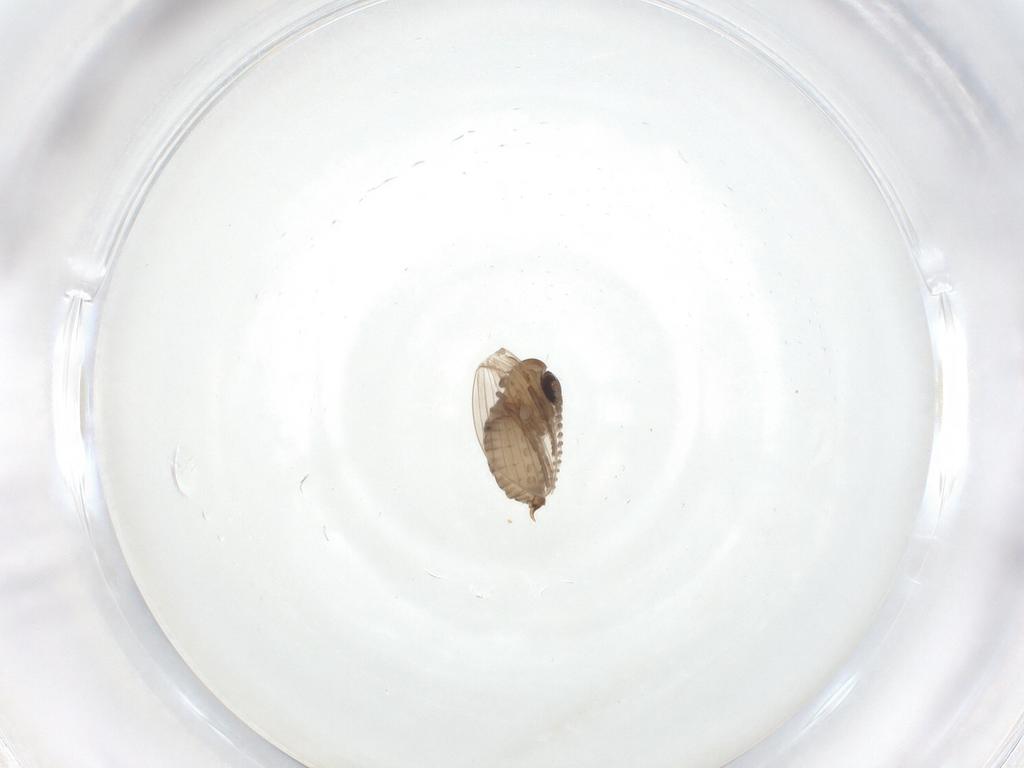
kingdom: Animalia
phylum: Arthropoda
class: Insecta
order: Diptera
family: Psychodidae
